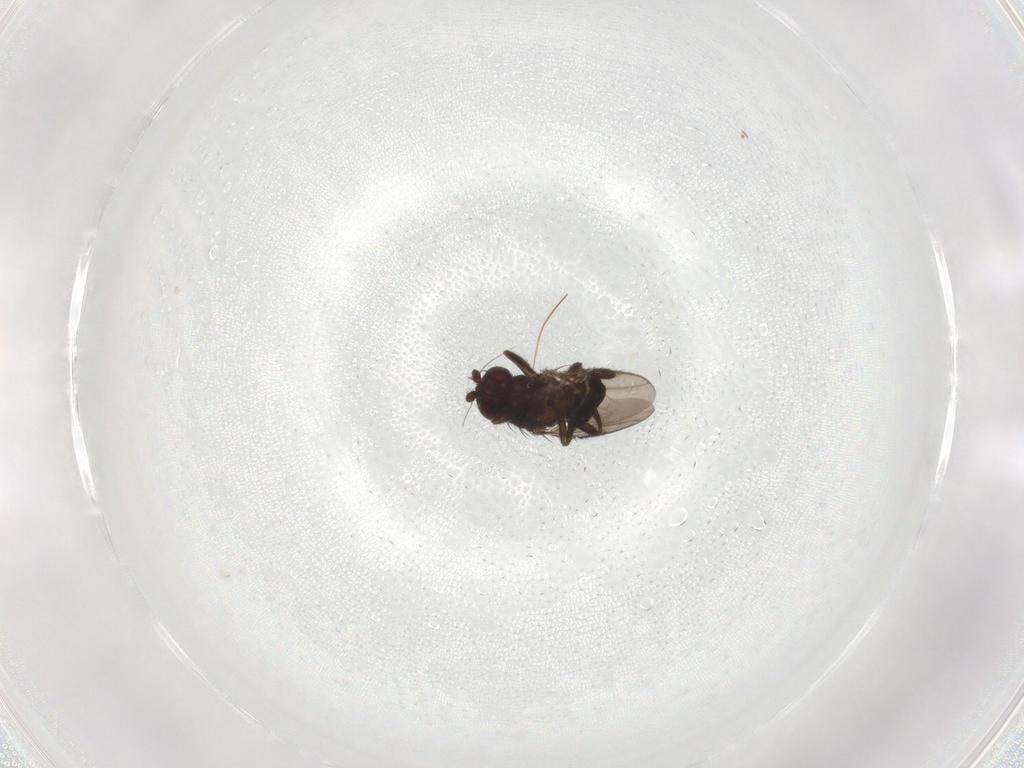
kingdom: Animalia
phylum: Arthropoda
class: Insecta
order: Diptera
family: Sphaeroceridae
